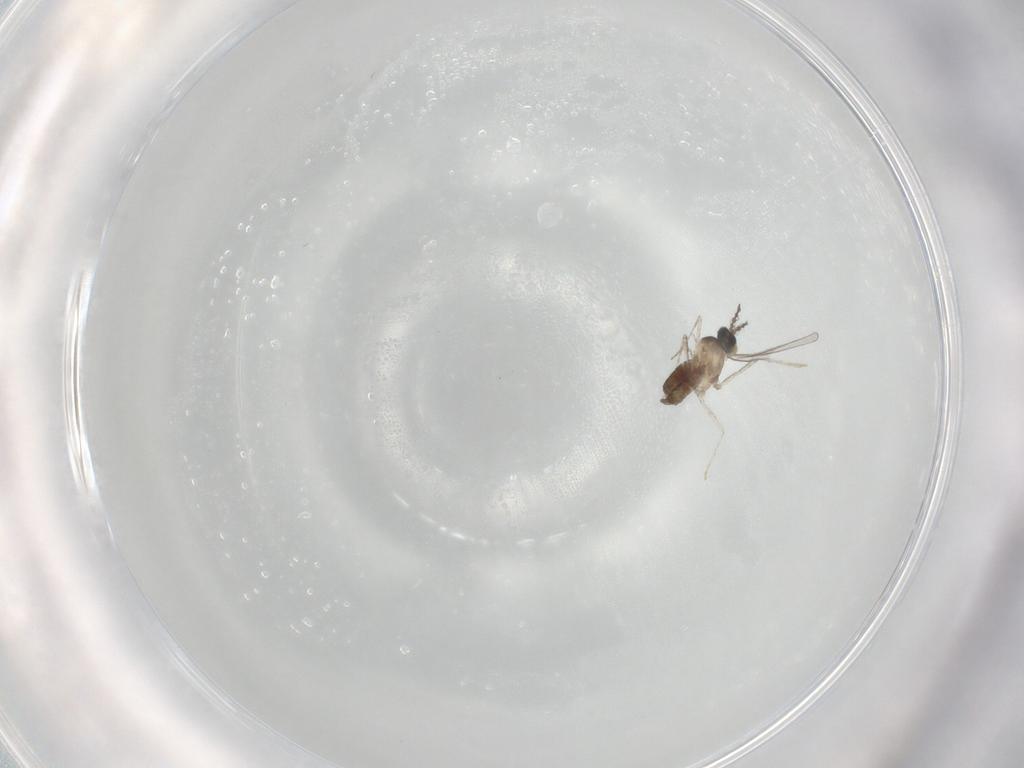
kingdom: Animalia
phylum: Arthropoda
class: Insecta
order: Diptera
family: Cecidomyiidae
